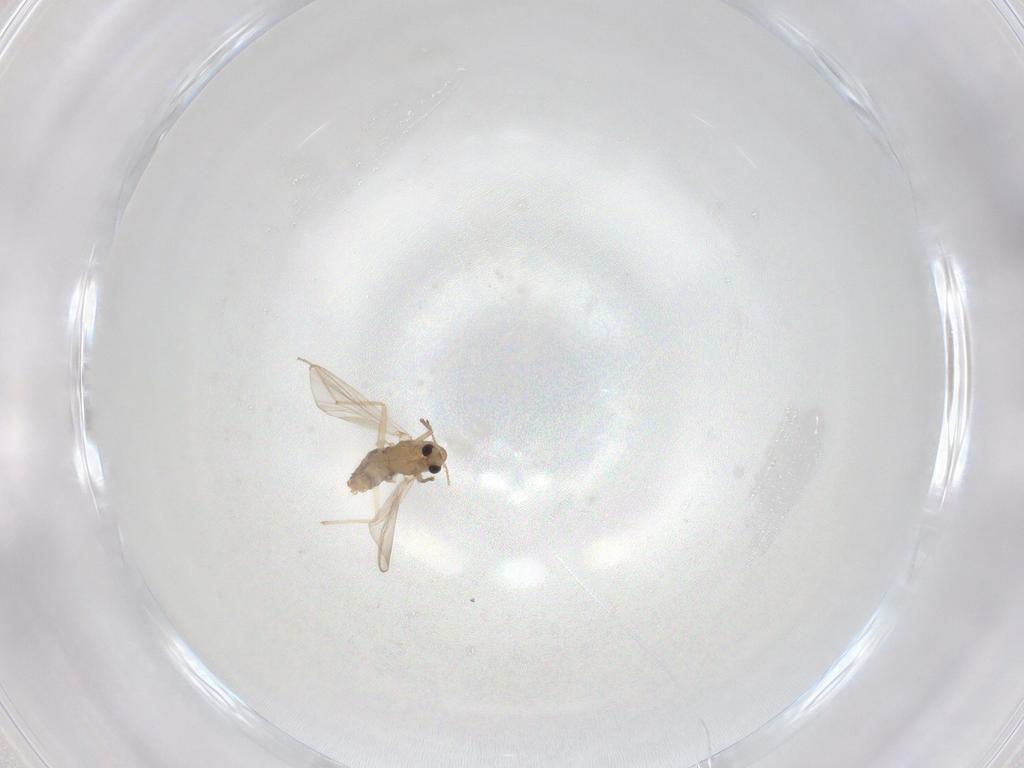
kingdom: Animalia
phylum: Arthropoda
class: Insecta
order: Diptera
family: Chironomidae
